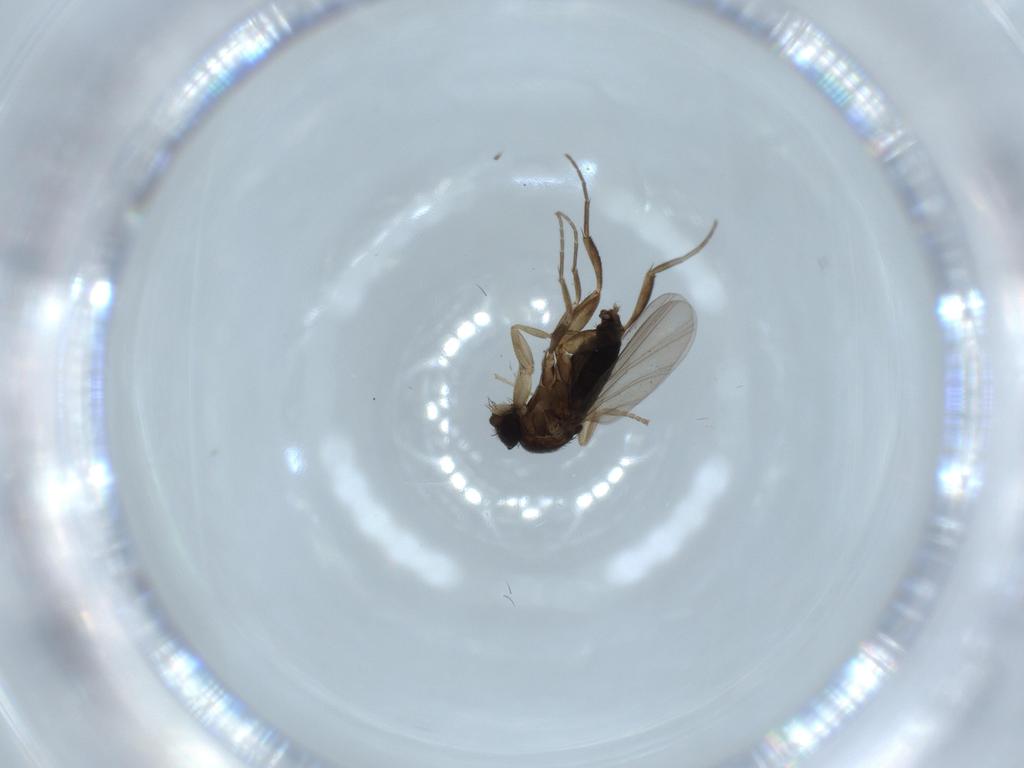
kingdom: Animalia
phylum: Arthropoda
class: Insecta
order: Diptera
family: Phoridae
